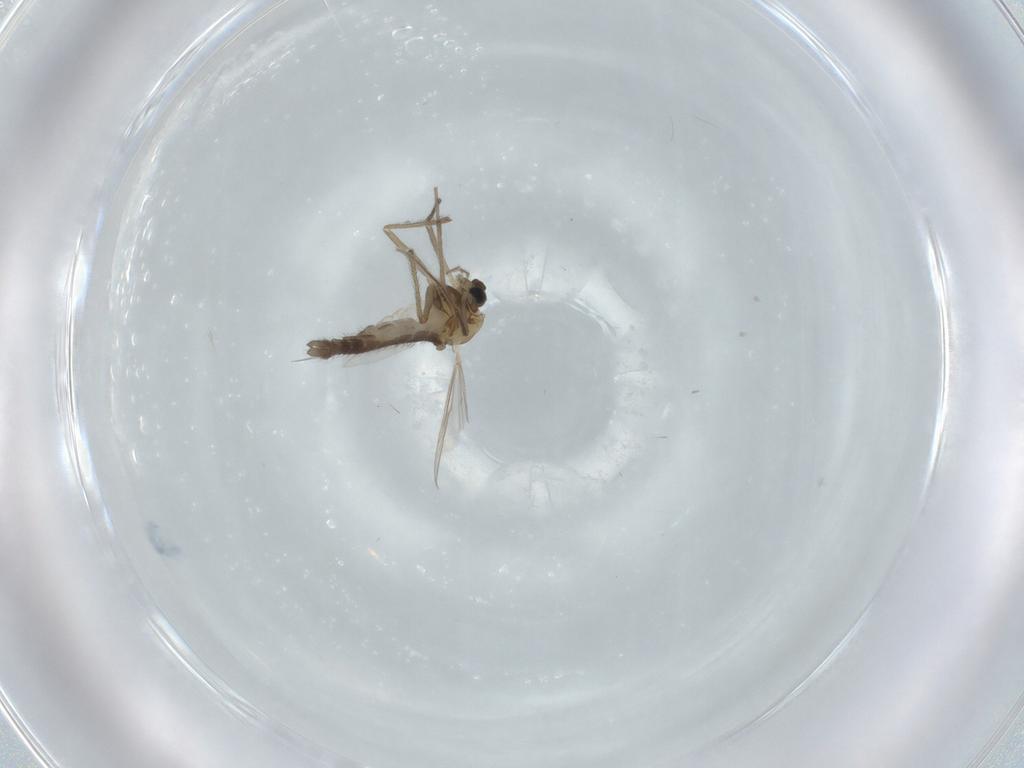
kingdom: Animalia
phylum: Arthropoda
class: Insecta
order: Diptera
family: Chironomidae
